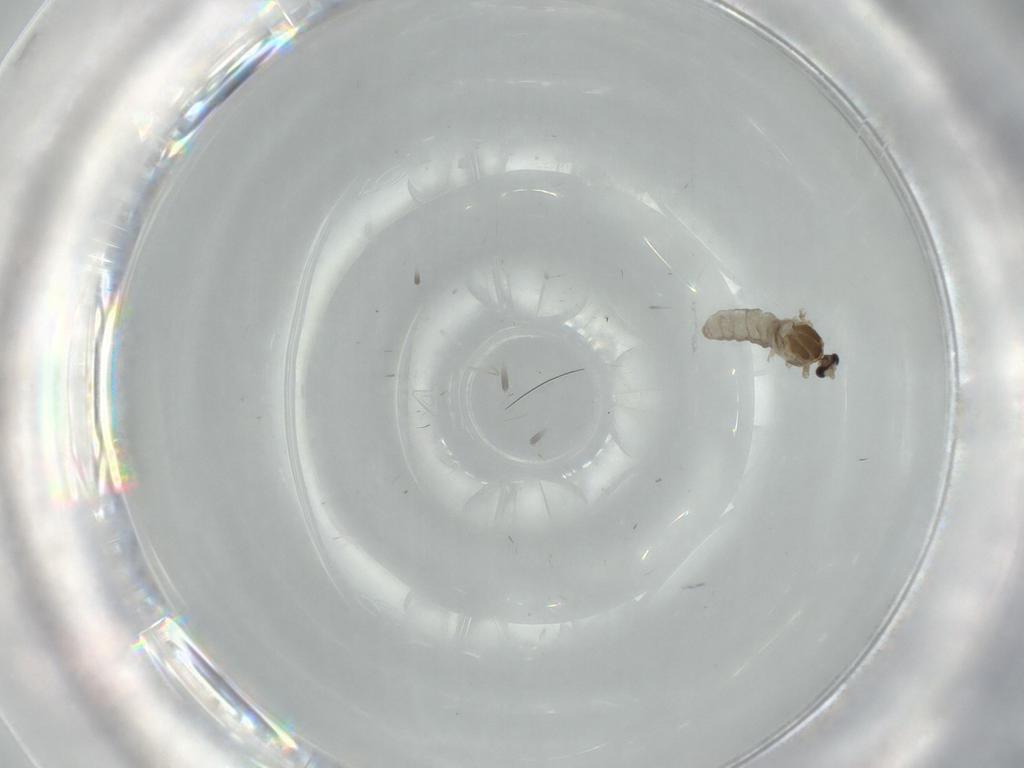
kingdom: Animalia
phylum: Arthropoda
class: Insecta
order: Diptera
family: Cecidomyiidae
